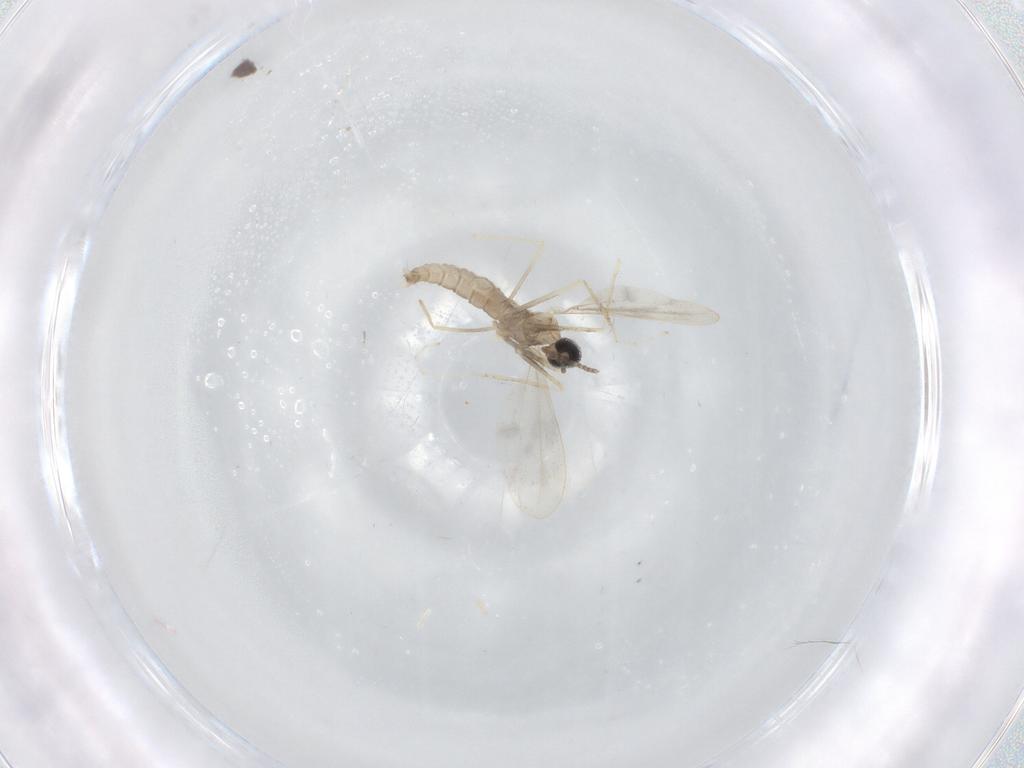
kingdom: Animalia
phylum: Arthropoda
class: Insecta
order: Diptera
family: Cecidomyiidae
